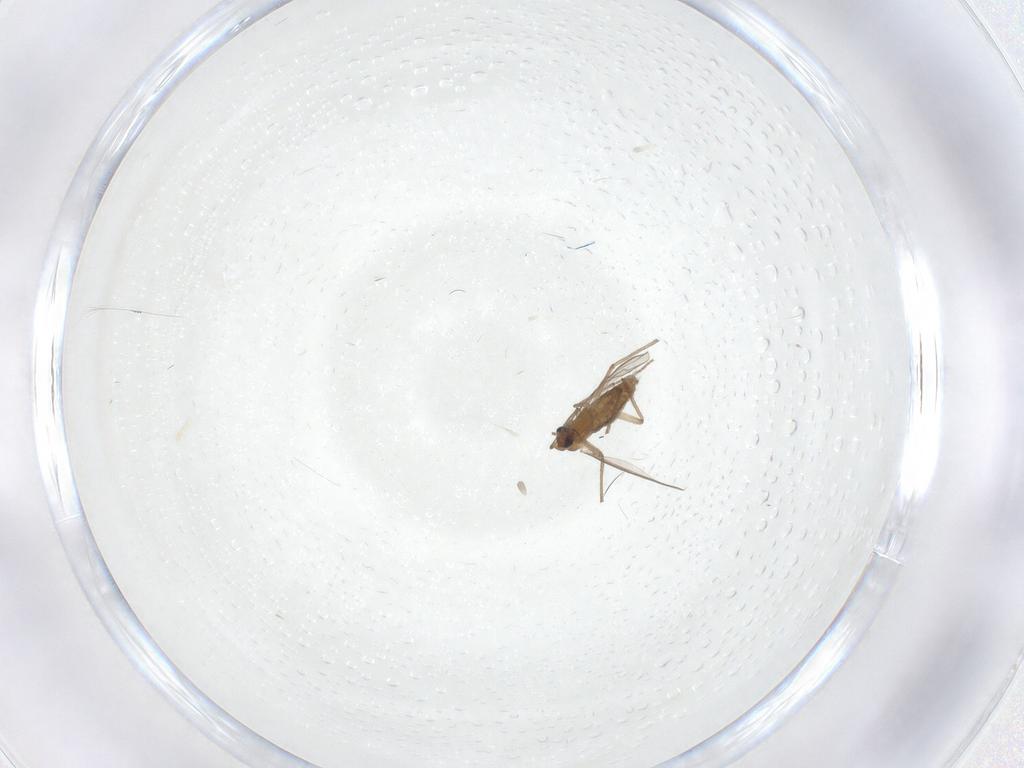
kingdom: Animalia
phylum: Arthropoda
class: Insecta
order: Diptera
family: Chironomidae
